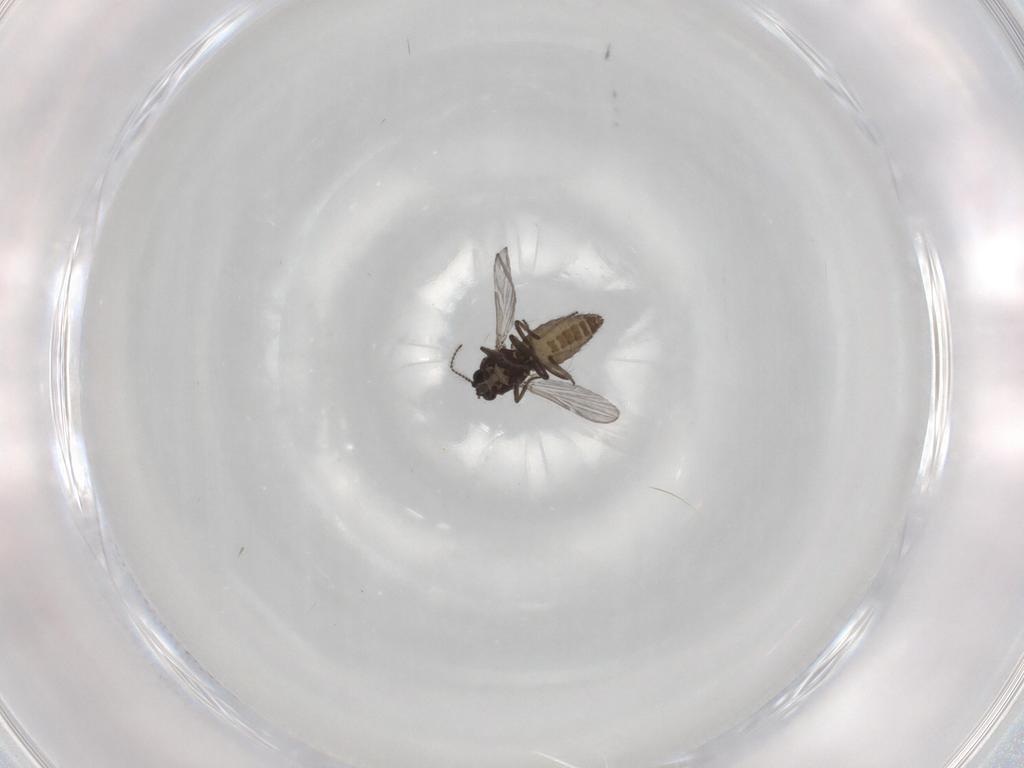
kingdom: Animalia
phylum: Arthropoda
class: Insecta
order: Diptera
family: Ceratopogonidae
